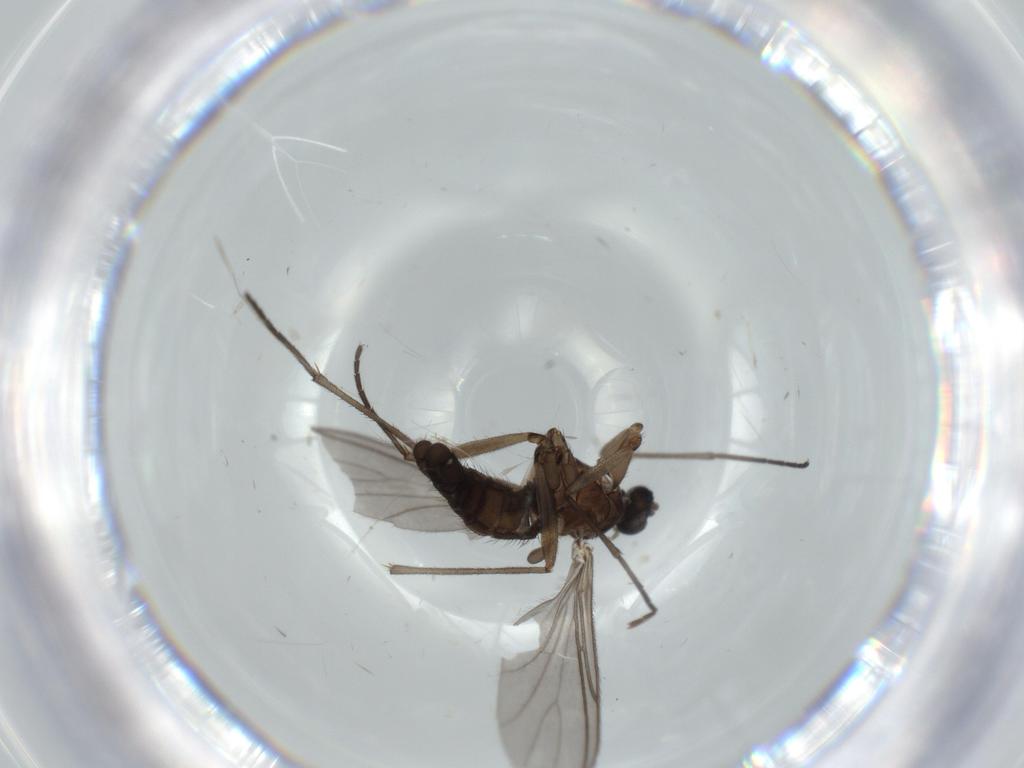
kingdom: Animalia
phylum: Arthropoda
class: Insecta
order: Diptera
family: Sciaridae
